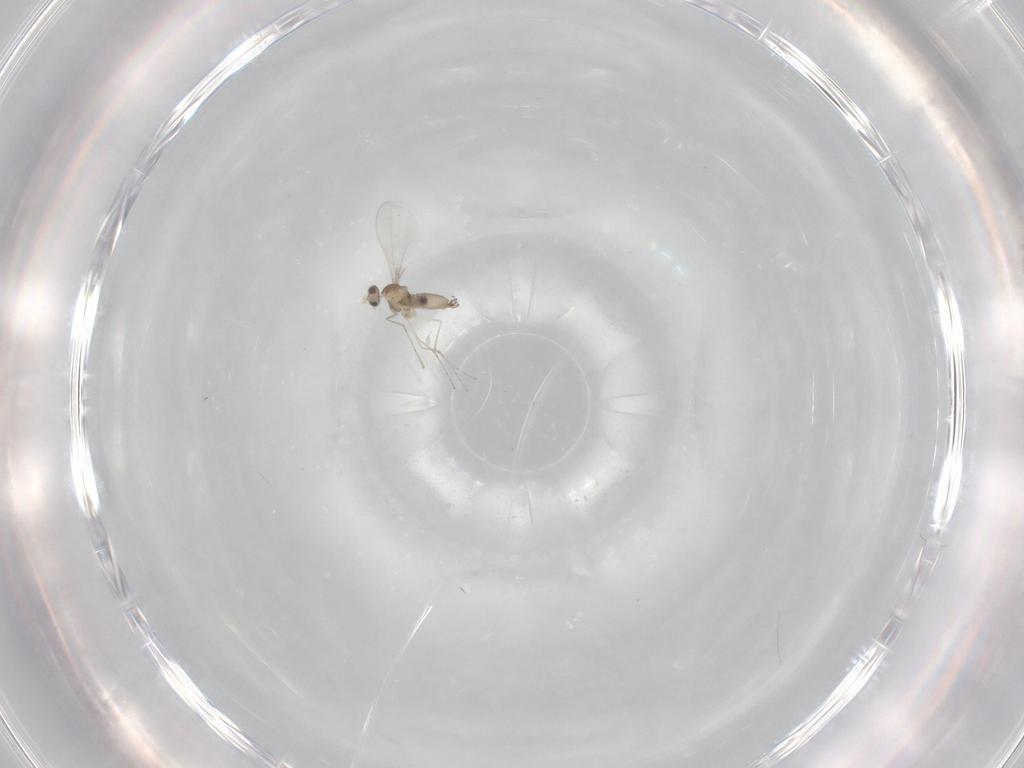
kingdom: Animalia
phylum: Arthropoda
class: Insecta
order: Diptera
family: Cecidomyiidae
